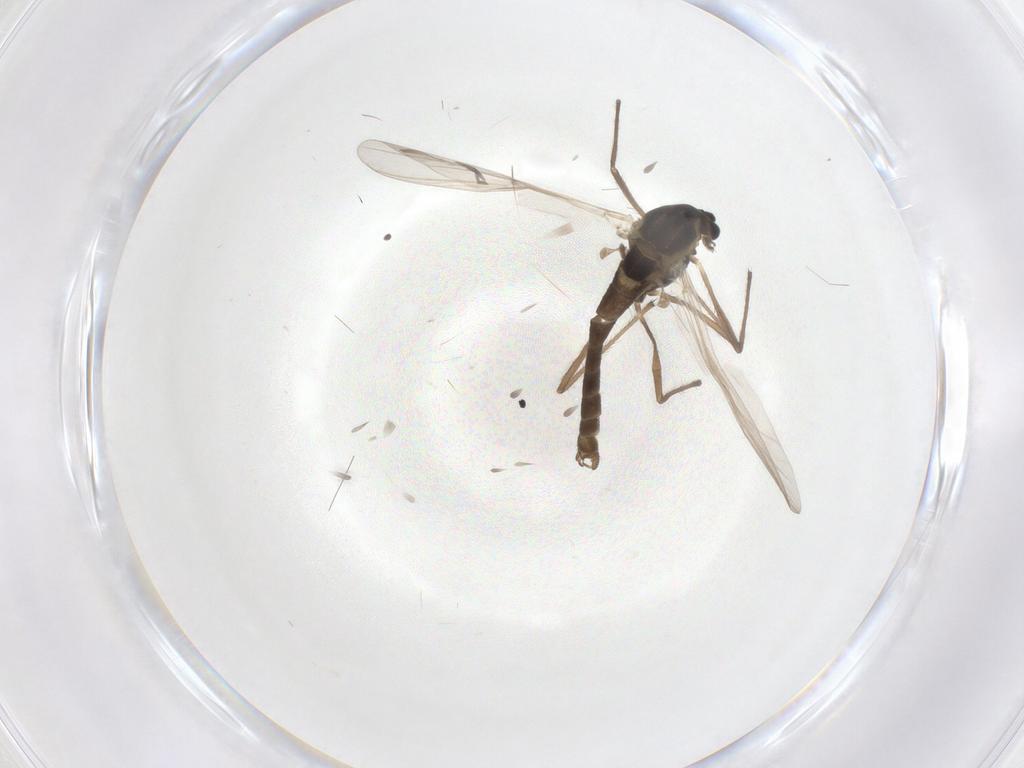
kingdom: Animalia
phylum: Arthropoda
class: Insecta
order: Diptera
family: Chironomidae
